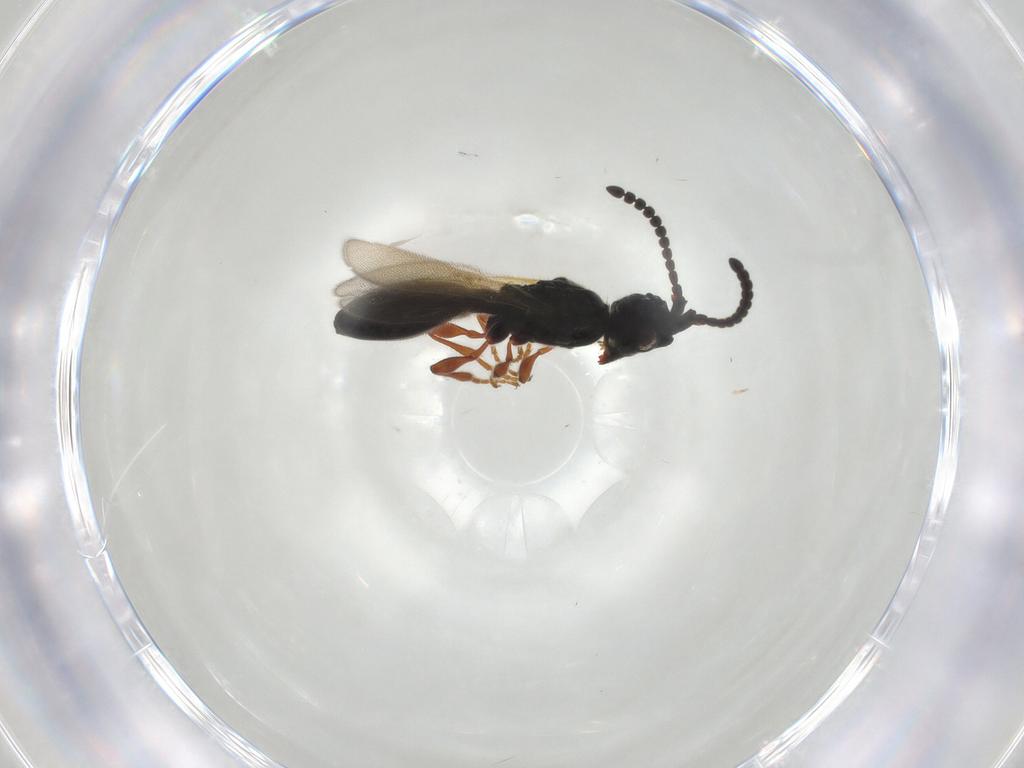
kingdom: Animalia
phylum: Arthropoda
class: Insecta
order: Hymenoptera
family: Diapriidae
